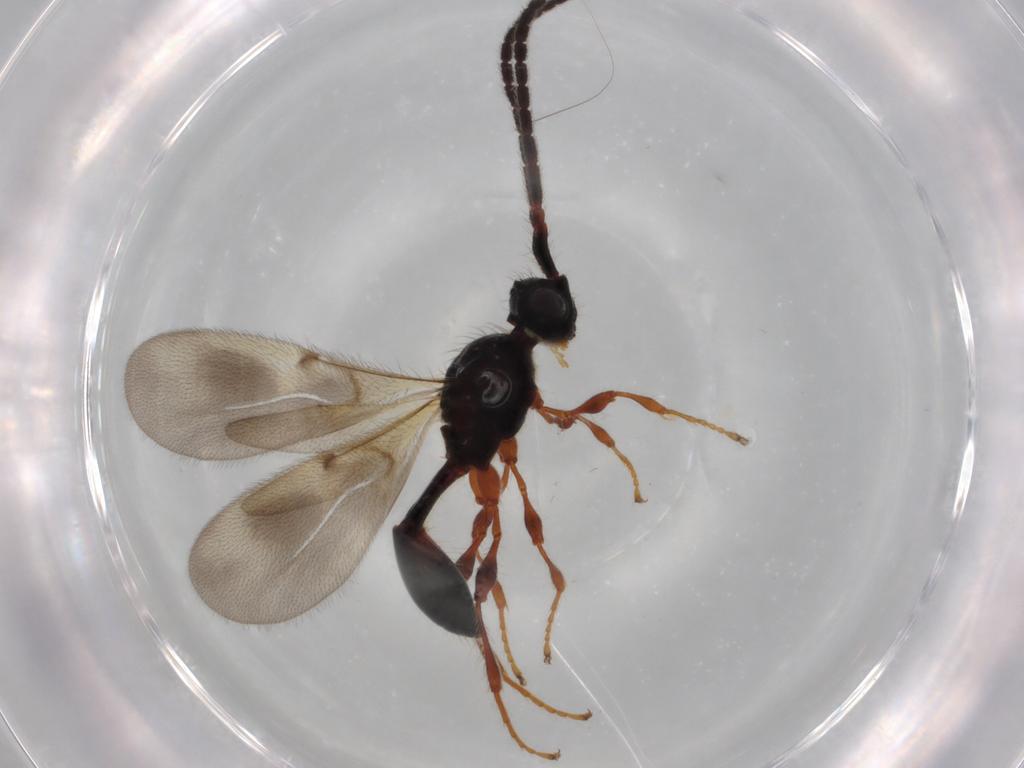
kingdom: Animalia
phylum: Arthropoda
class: Insecta
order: Hymenoptera
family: Diapriidae
